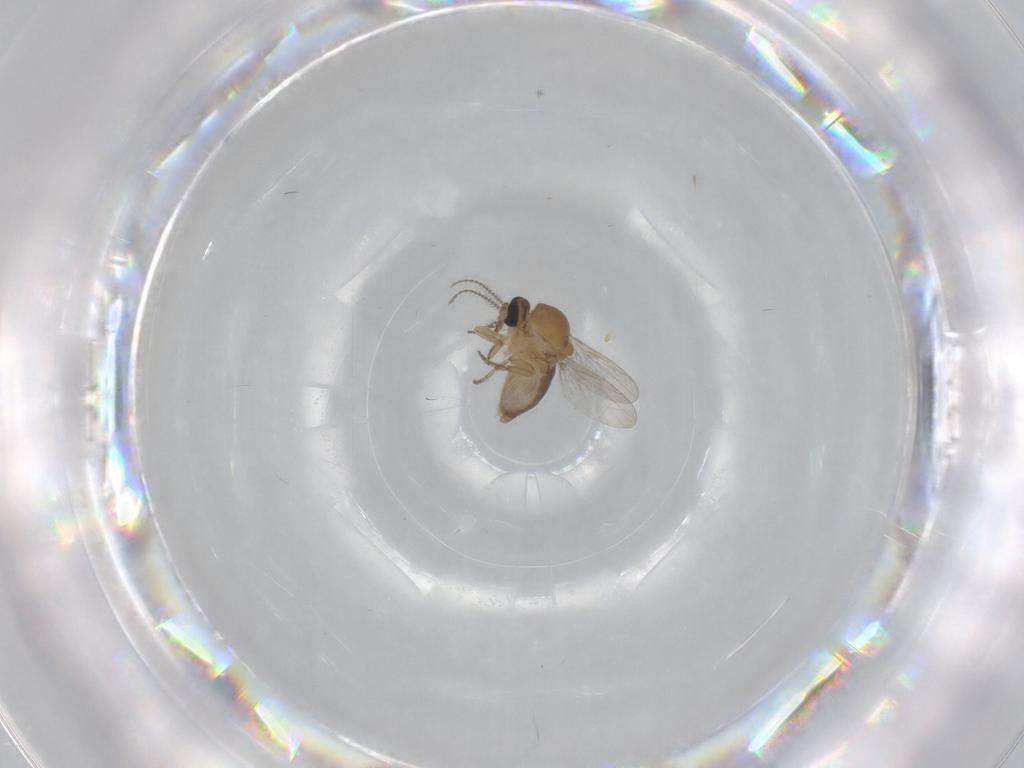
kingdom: Animalia
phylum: Arthropoda
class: Insecta
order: Diptera
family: Ceratopogonidae
